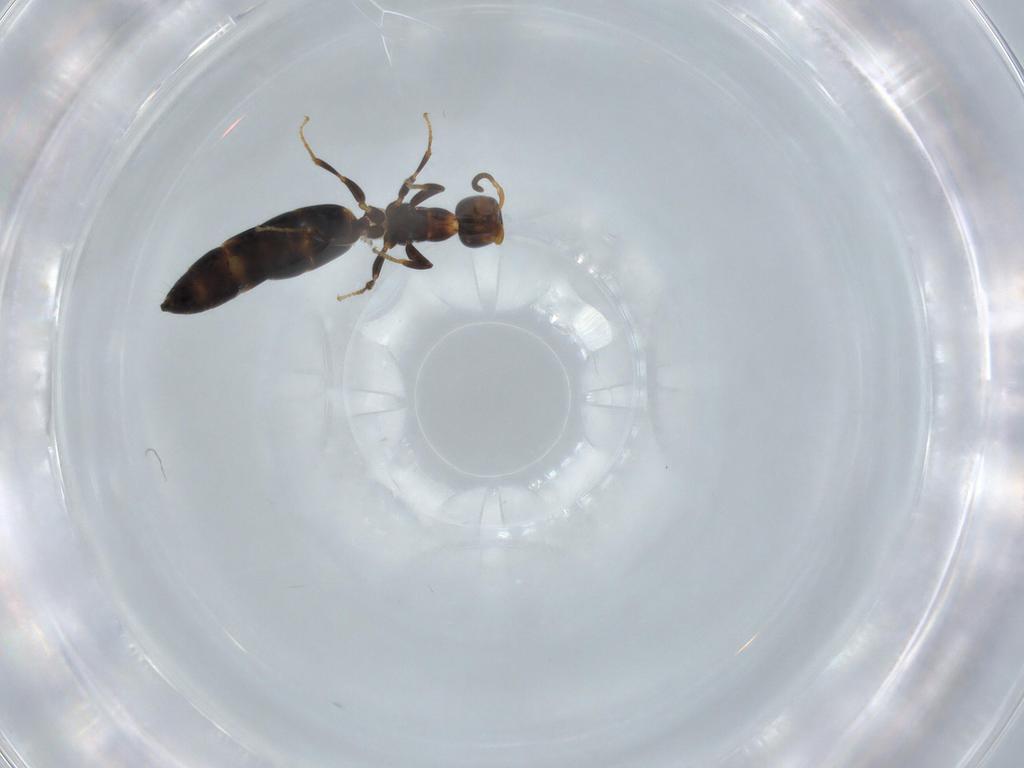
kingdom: Animalia
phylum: Arthropoda
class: Insecta
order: Hymenoptera
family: Bethylidae
